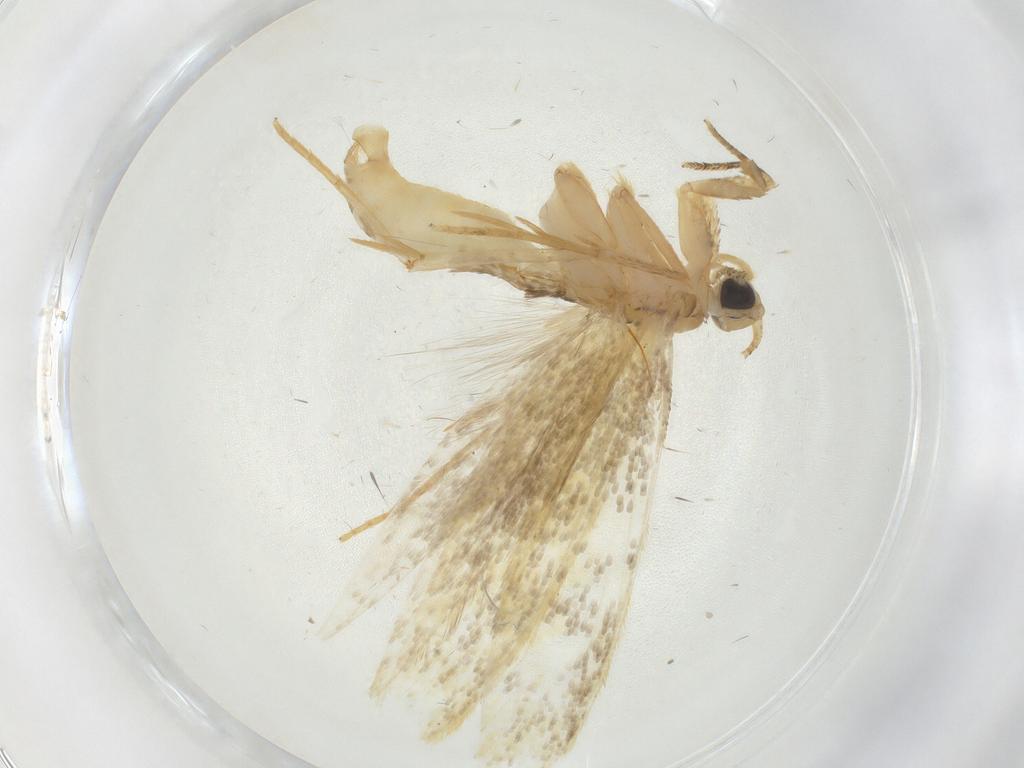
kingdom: Animalia
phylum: Arthropoda
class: Insecta
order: Lepidoptera
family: Tineidae
